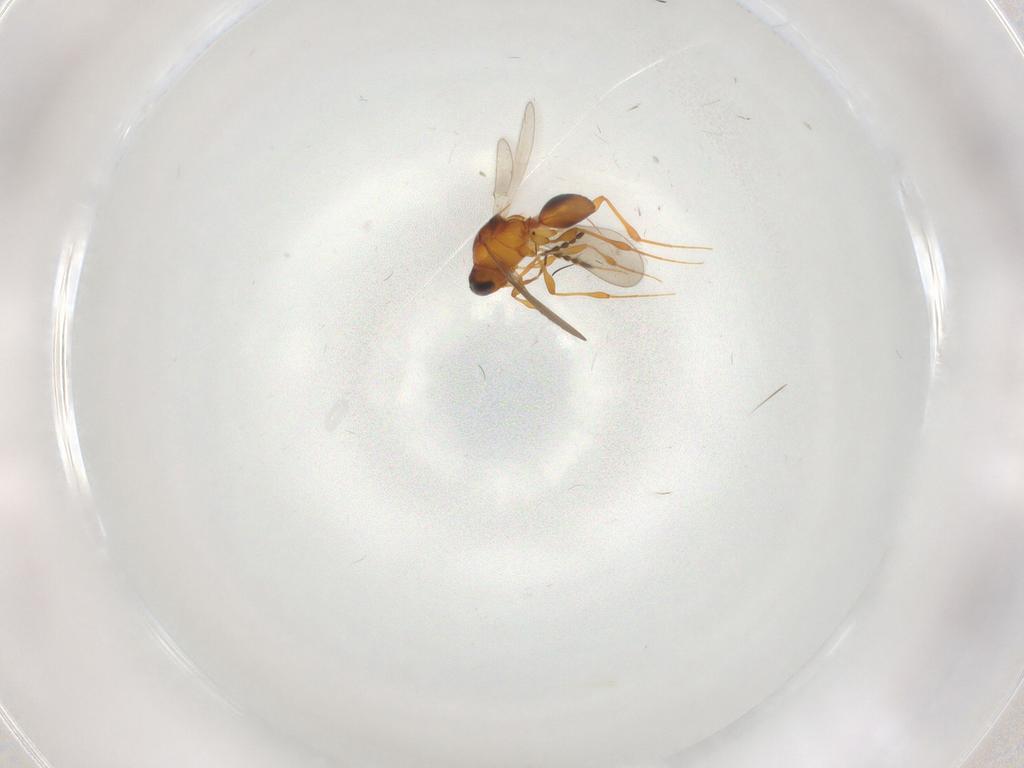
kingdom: Animalia
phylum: Arthropoda
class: Insecta
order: Hymenoptera
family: Platygastridae
